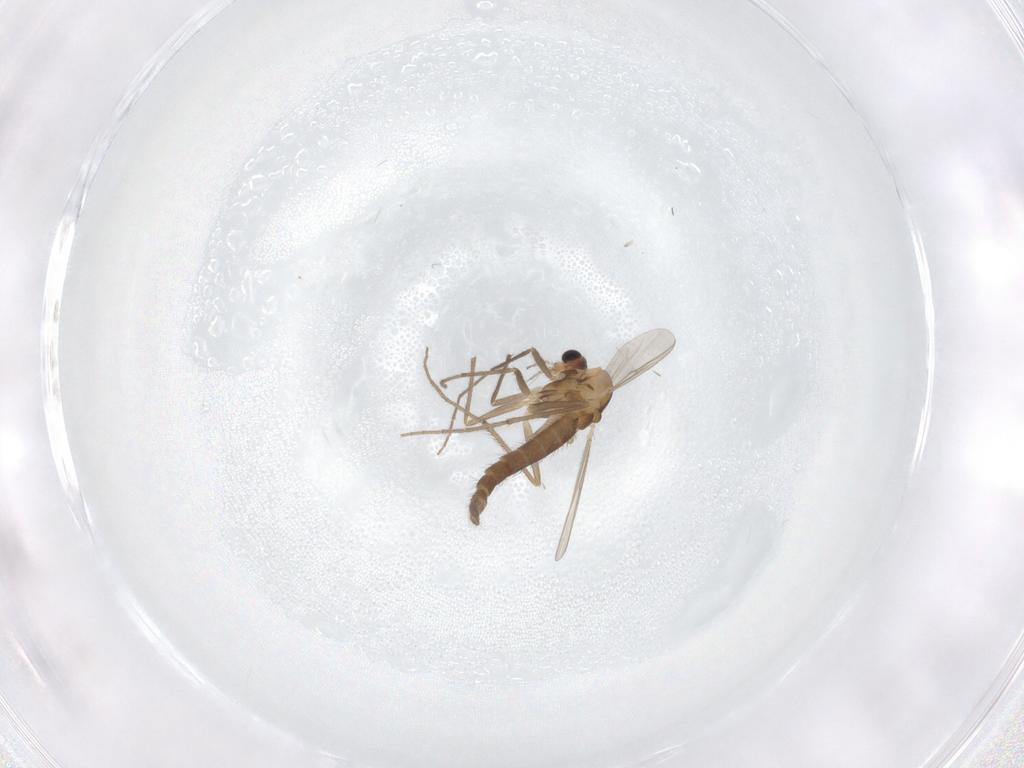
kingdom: Animalia
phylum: Arthropoda
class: Insecta
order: Diptera
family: Chironomidae
